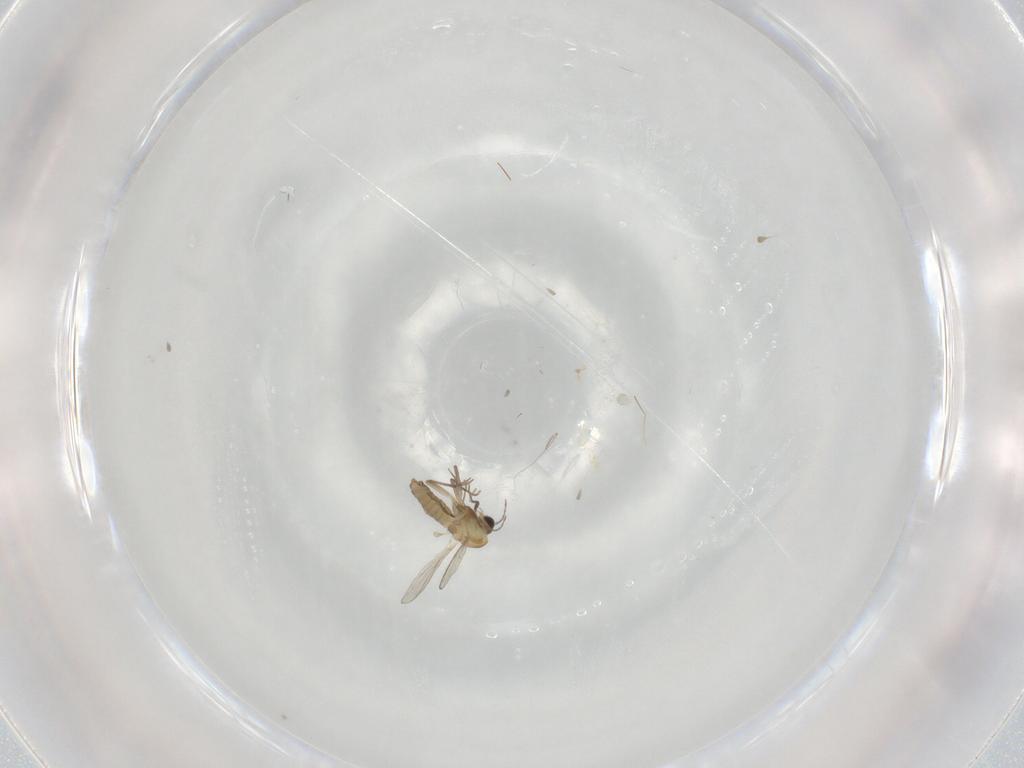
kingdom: Animalia
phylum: Arthropoda
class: Insecta
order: Diptera
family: Chironomidae
